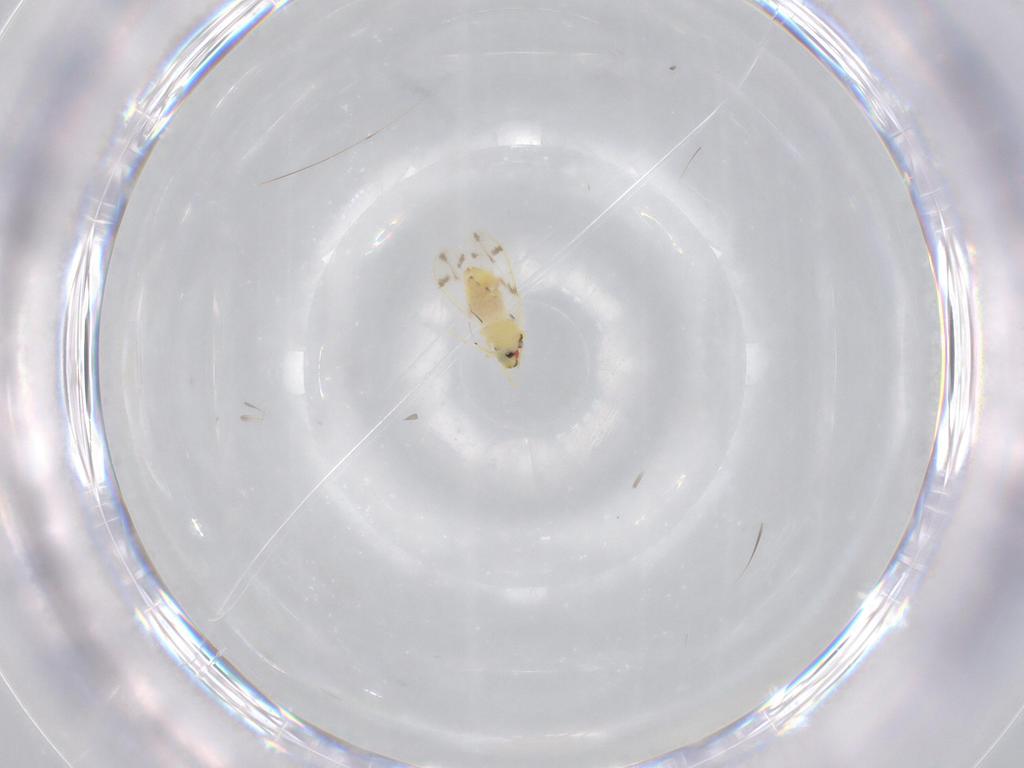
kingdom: Animalia
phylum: Arthropoda
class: Insecta
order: Hemiptera
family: Aleyrodidae
